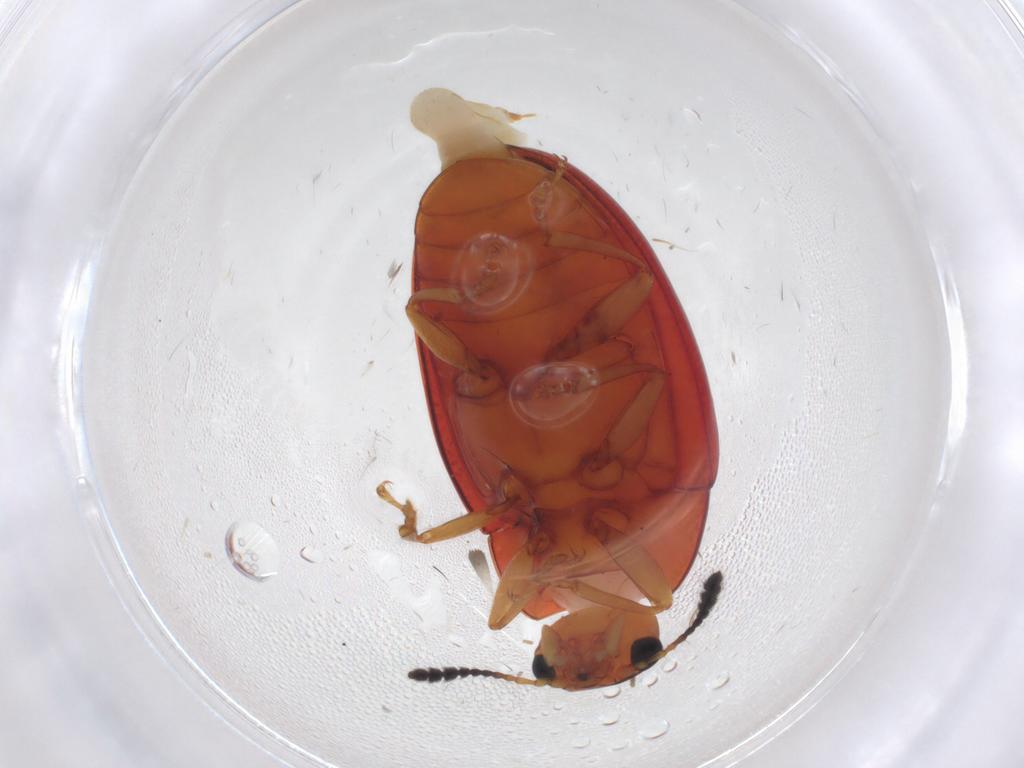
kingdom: Animalia
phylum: Arthropoda
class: Insecta
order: Coleoptera
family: Erotylidae
